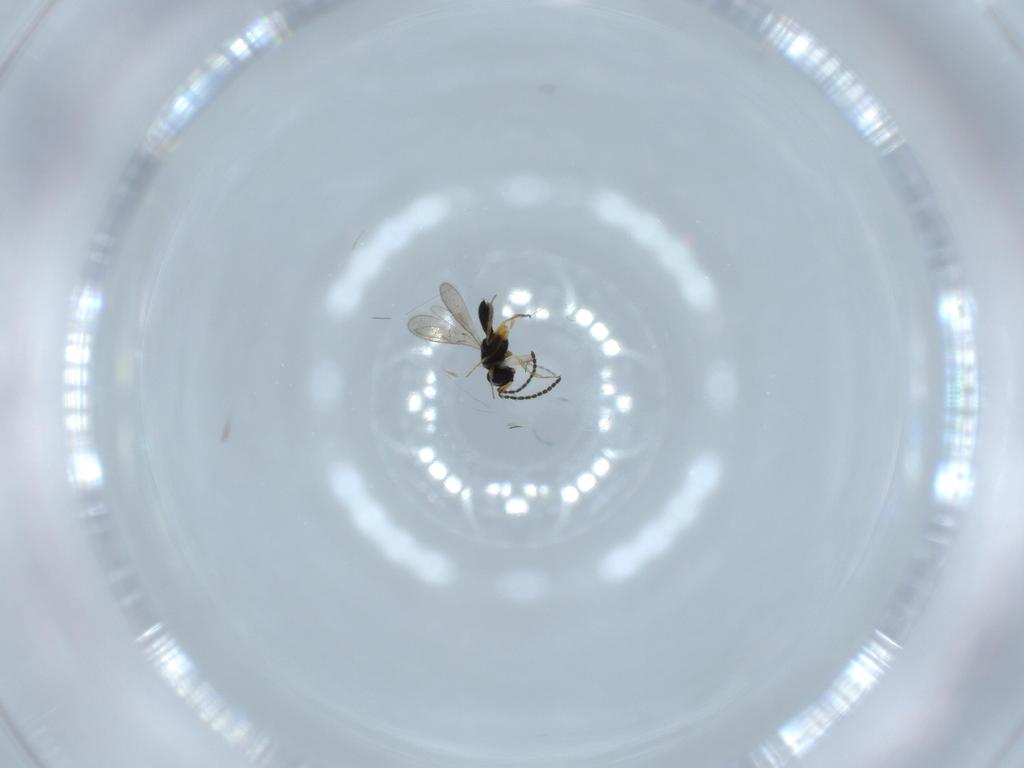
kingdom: Animalia
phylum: Arthropoda
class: Insecta
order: Hymenoptera
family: Scelionidae
